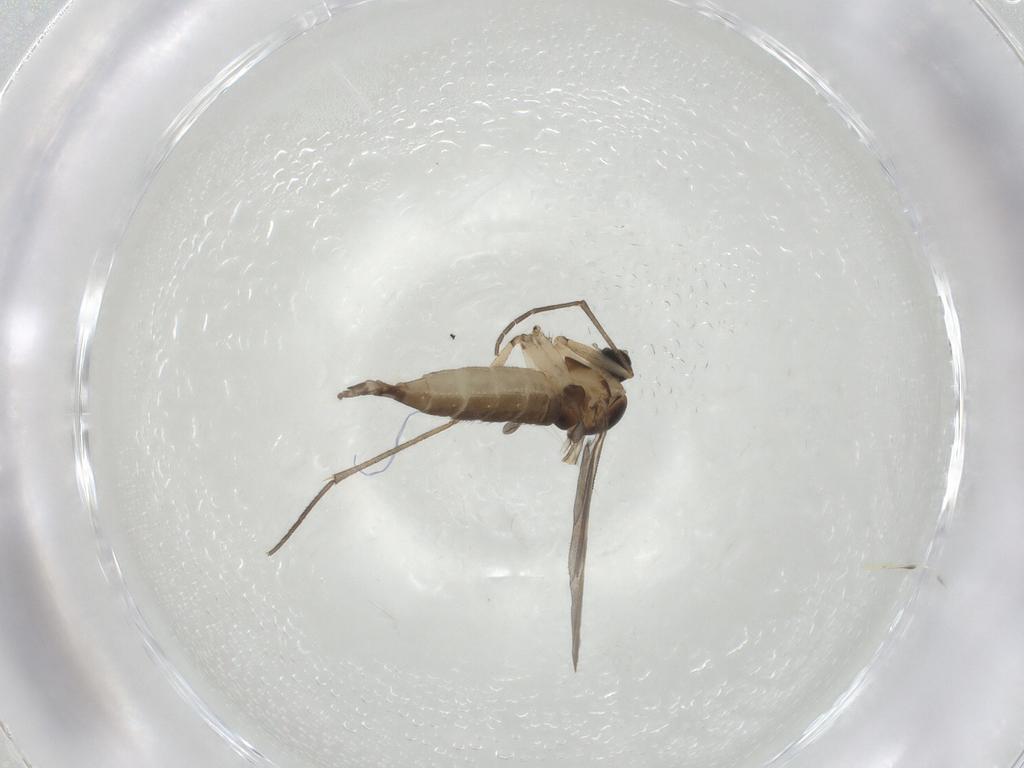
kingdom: Animalia
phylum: Arthropoda
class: Insecta
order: Diptera
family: Sciaridae
